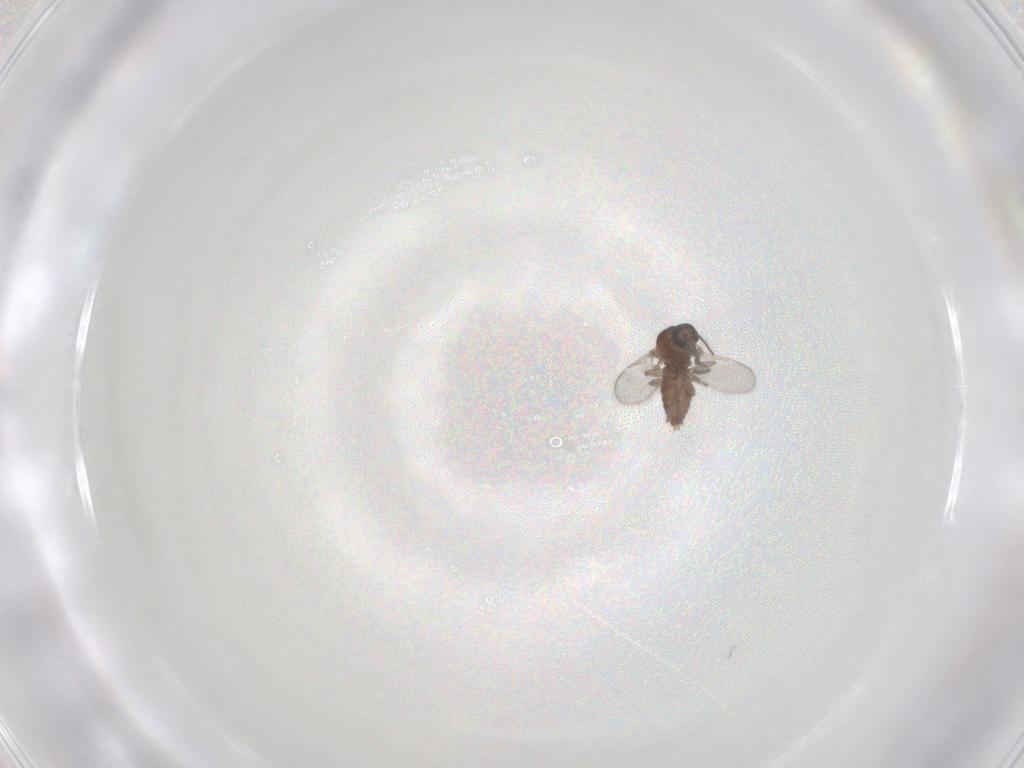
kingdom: Animalia
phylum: Arthropoda
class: Insecta
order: Diptera
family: Ceratopogonidae
